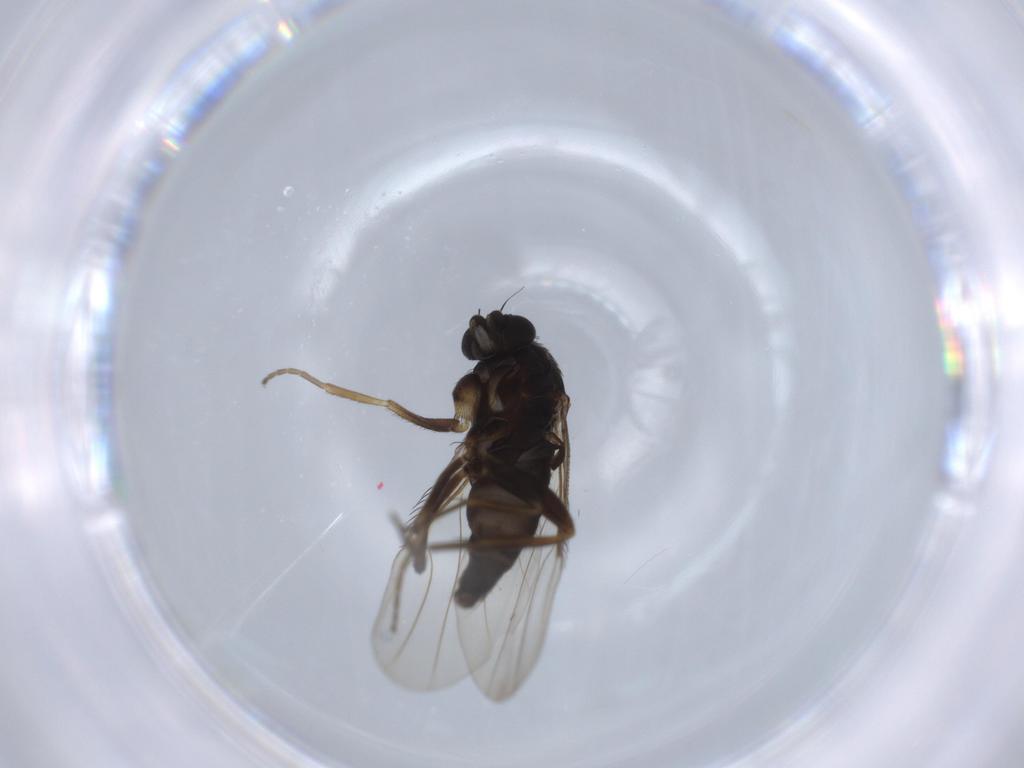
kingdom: Animalia
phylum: Arthropoda
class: Insecta
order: Diptera
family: Phoridae
